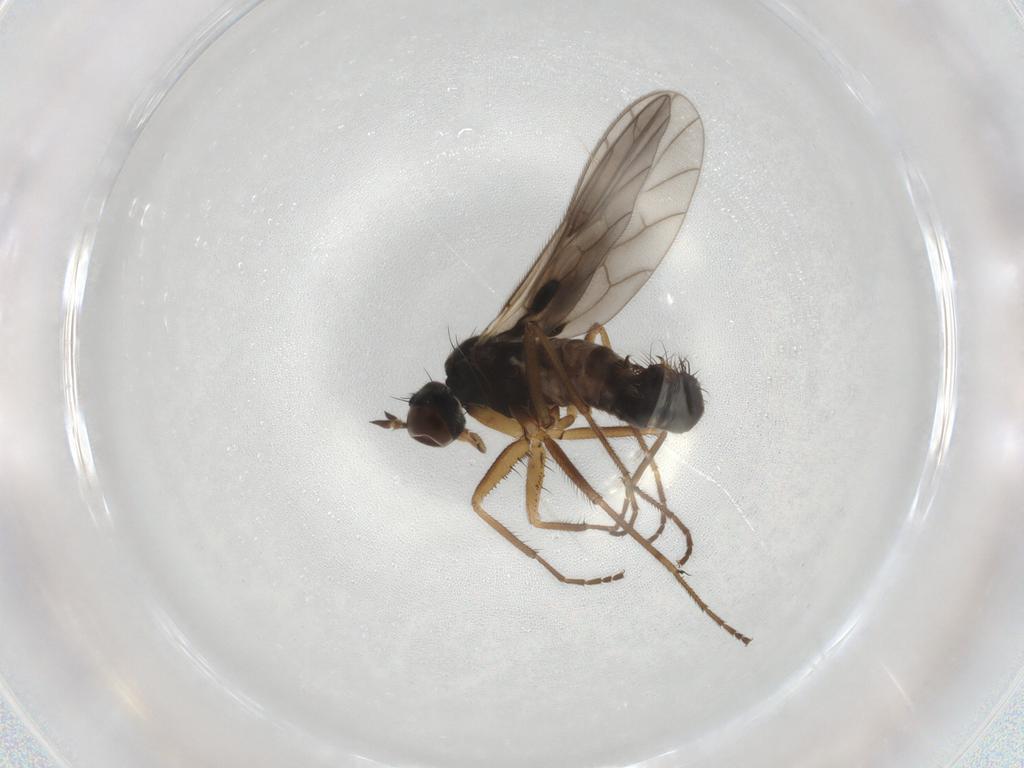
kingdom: Animalia
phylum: Arthropoda
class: Insecta
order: Diptera
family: Empididae
